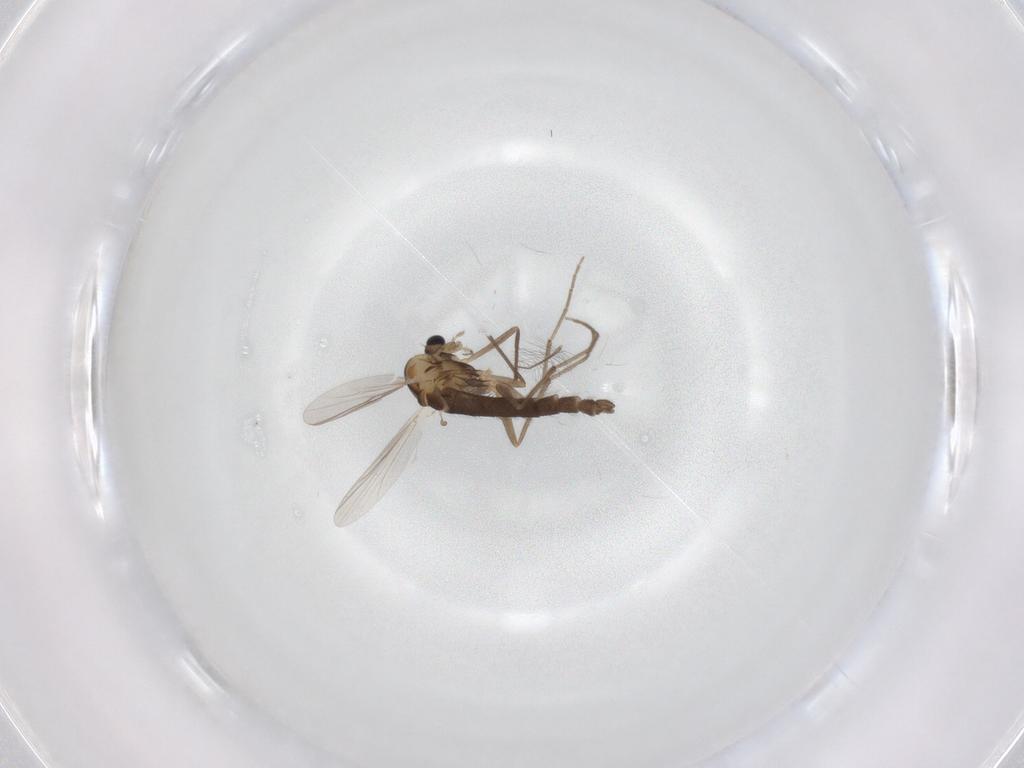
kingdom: Animalia
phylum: Arthropoda
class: Insecta
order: Diptera
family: Chironomidae
